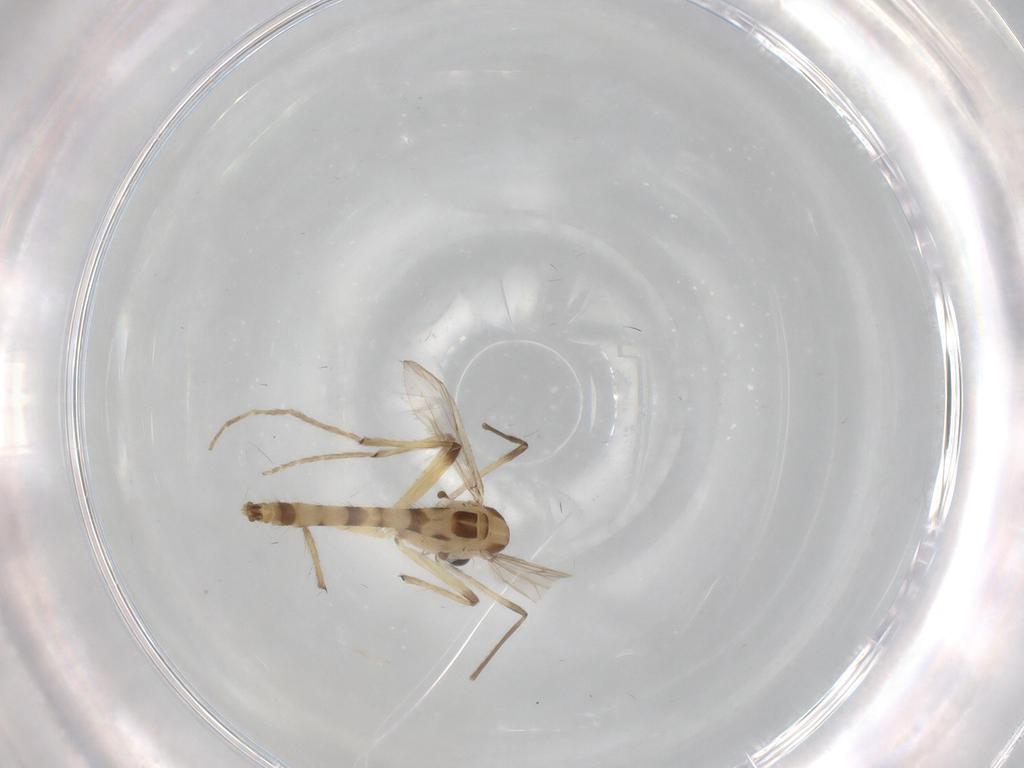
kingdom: Animalia
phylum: Arthropoda
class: Insecta
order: Diptera
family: Chironomidae
